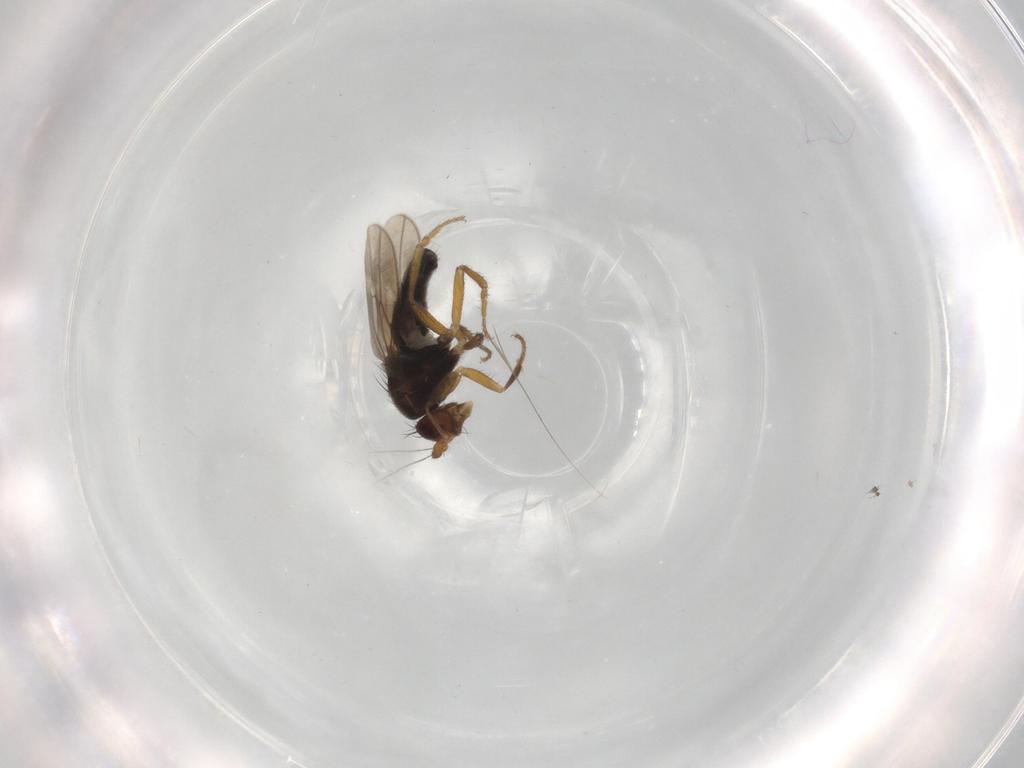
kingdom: Animalia
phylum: Arthropoda
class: Insecta
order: Diptera
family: Sphaeroceridae
